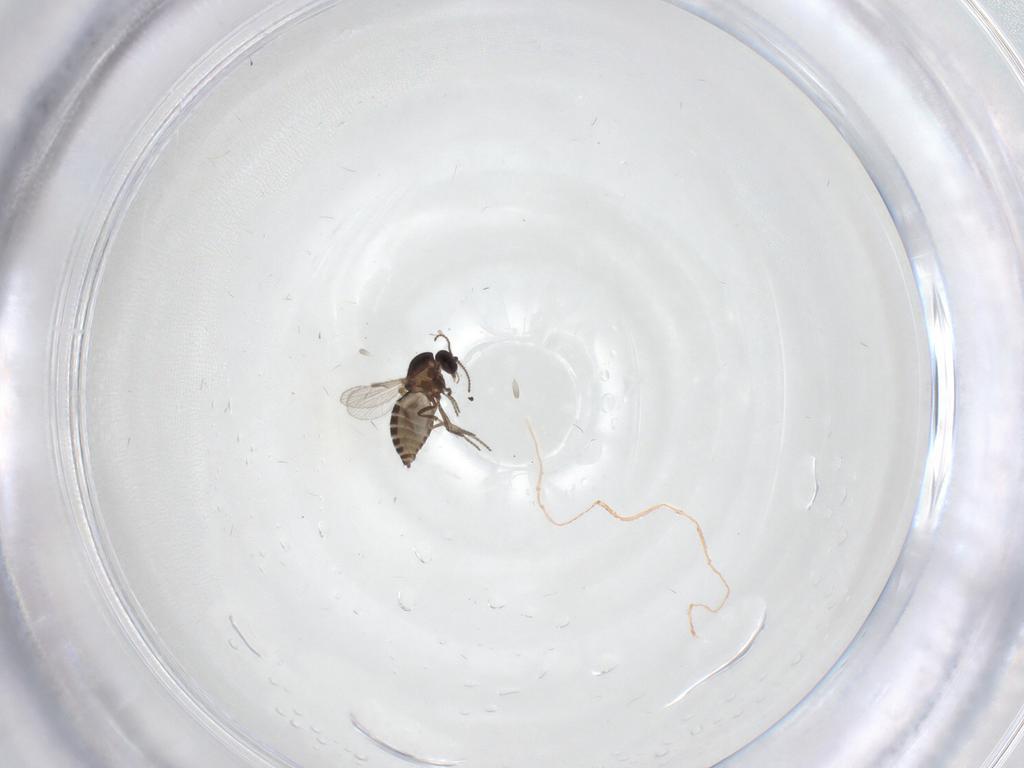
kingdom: Animalia
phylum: Arthropoda
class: Insecta
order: Diptera
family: Ceratopogonidae
